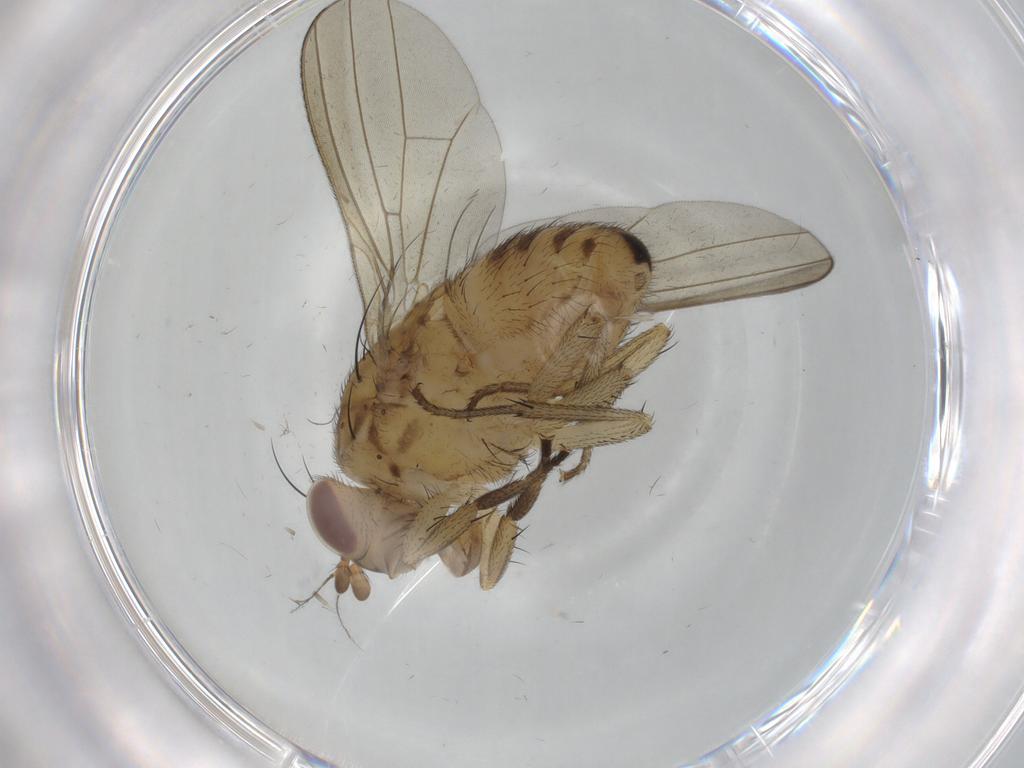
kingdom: Animalia
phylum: Arthropoda
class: Insecta
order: Diptera
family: Chironomidae
